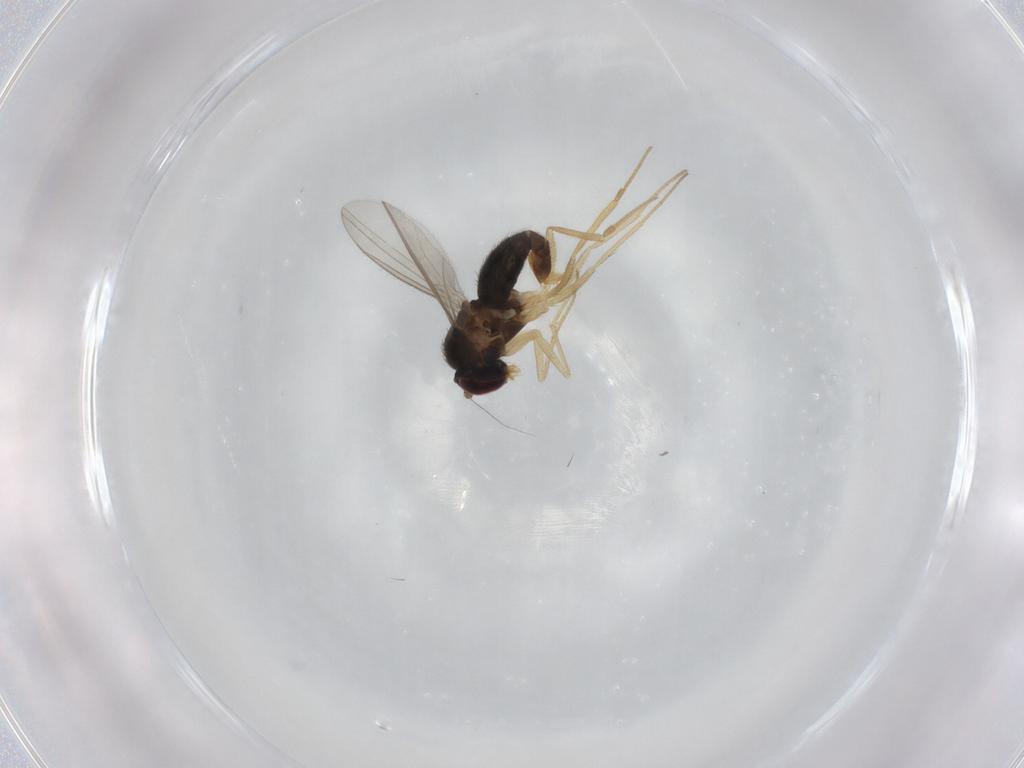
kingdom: Animalia
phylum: Arthropoda
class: Insecta
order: Diptera
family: Dolichopodidae
